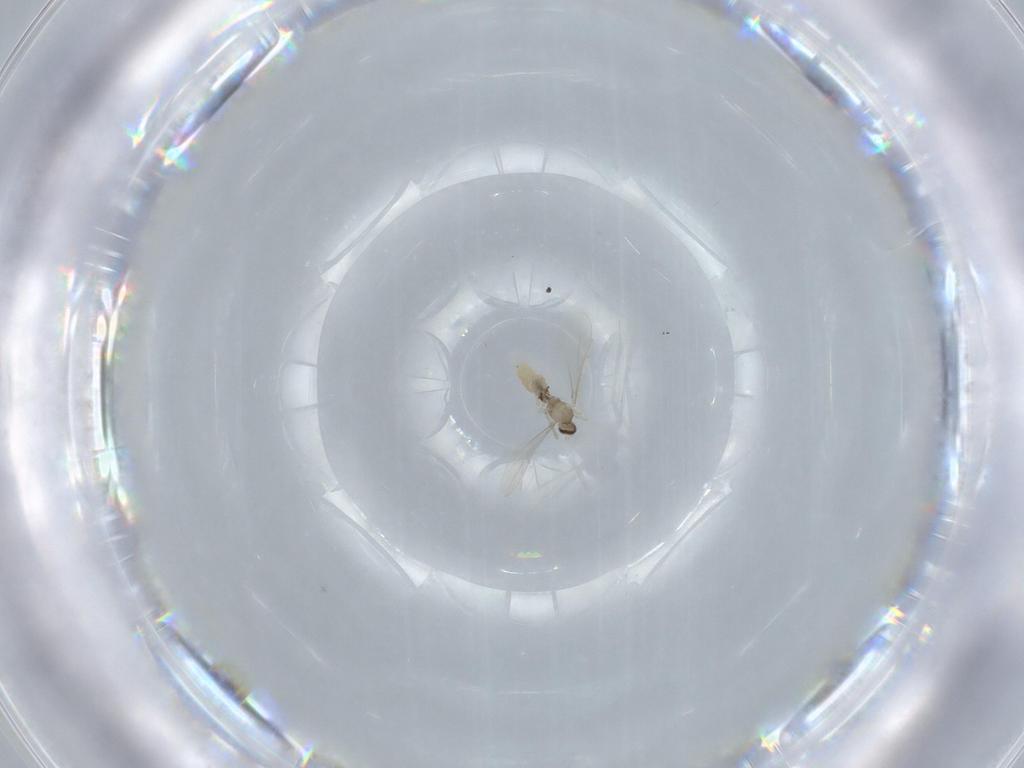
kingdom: Animalia
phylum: Arthropoda
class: Insecta
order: Diptera
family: Cecidomyiidae
